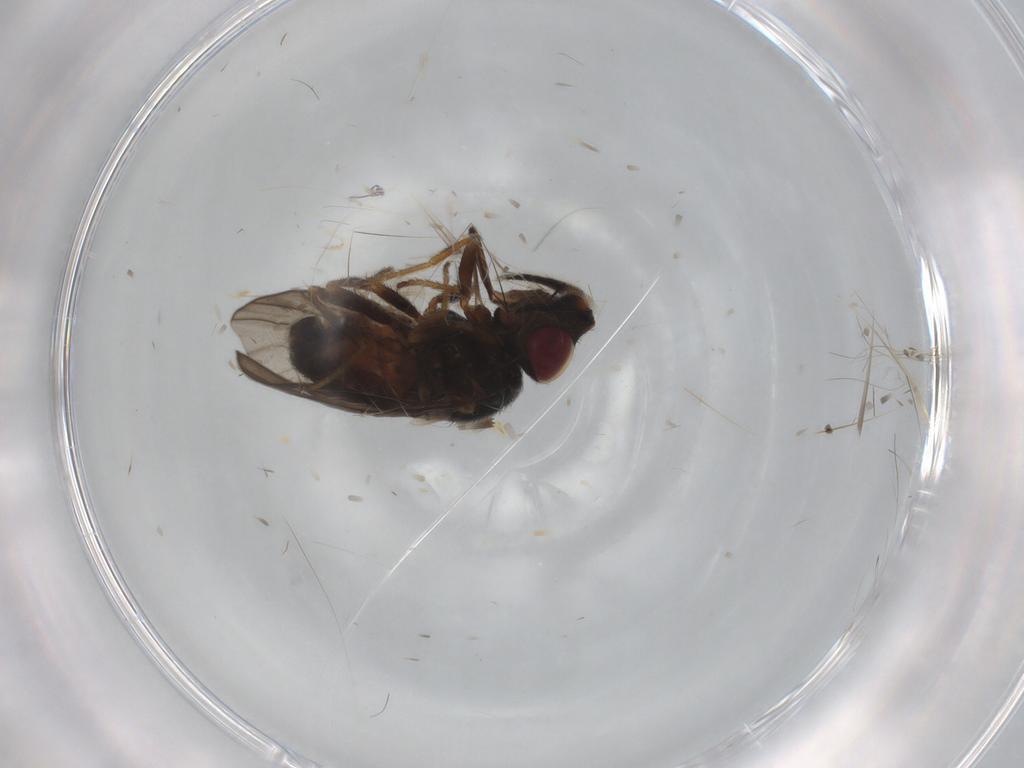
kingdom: Animalia
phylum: Arthropoda
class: Insecta
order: Diptera
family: Chloropidae
